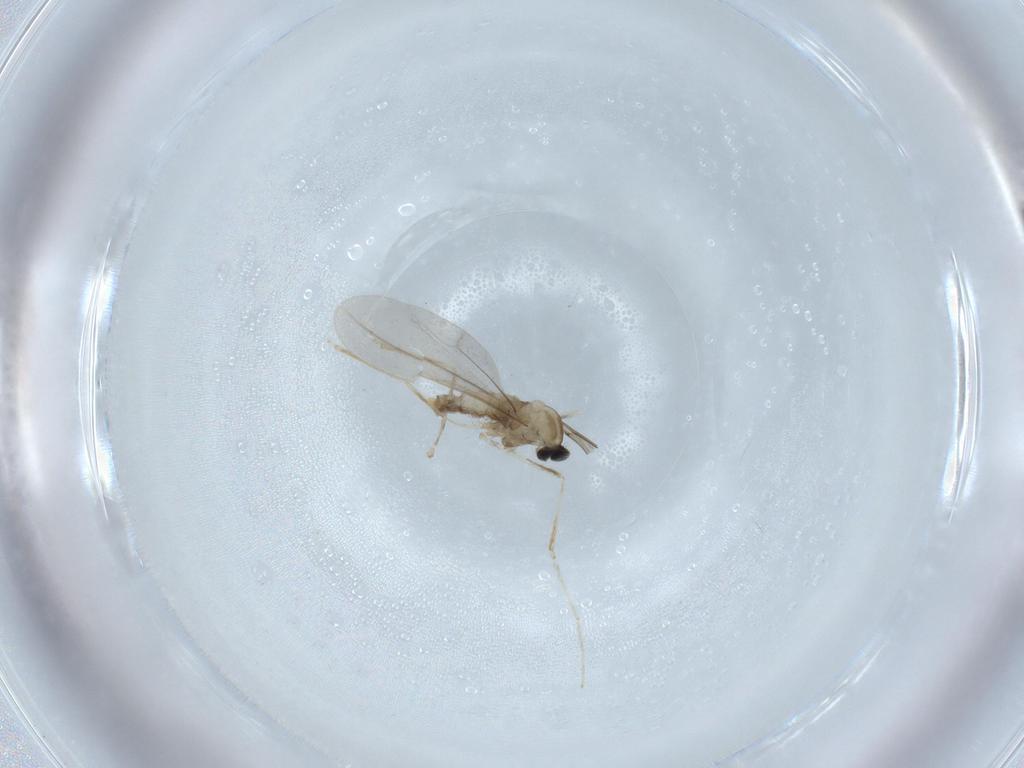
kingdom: Animalia
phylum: Arthropoda
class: Insecta
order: Diptera
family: Cecidomyiidae
